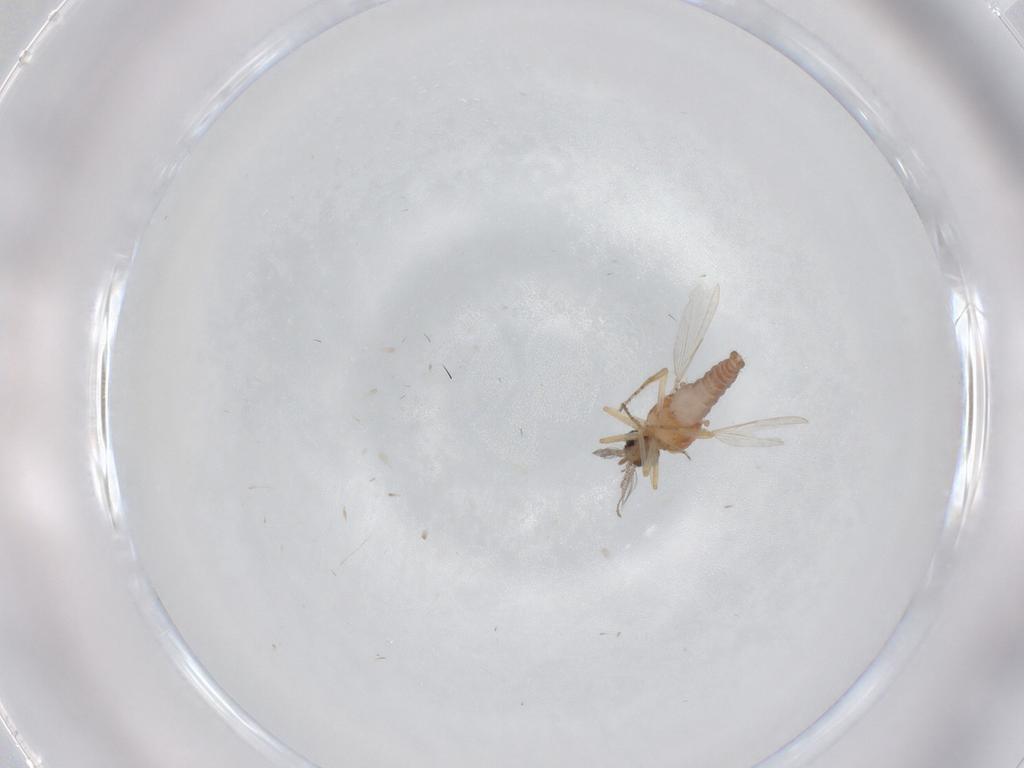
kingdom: Animalia
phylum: Arthropoda
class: Insecta
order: Diptera
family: Ceratopogonidae
